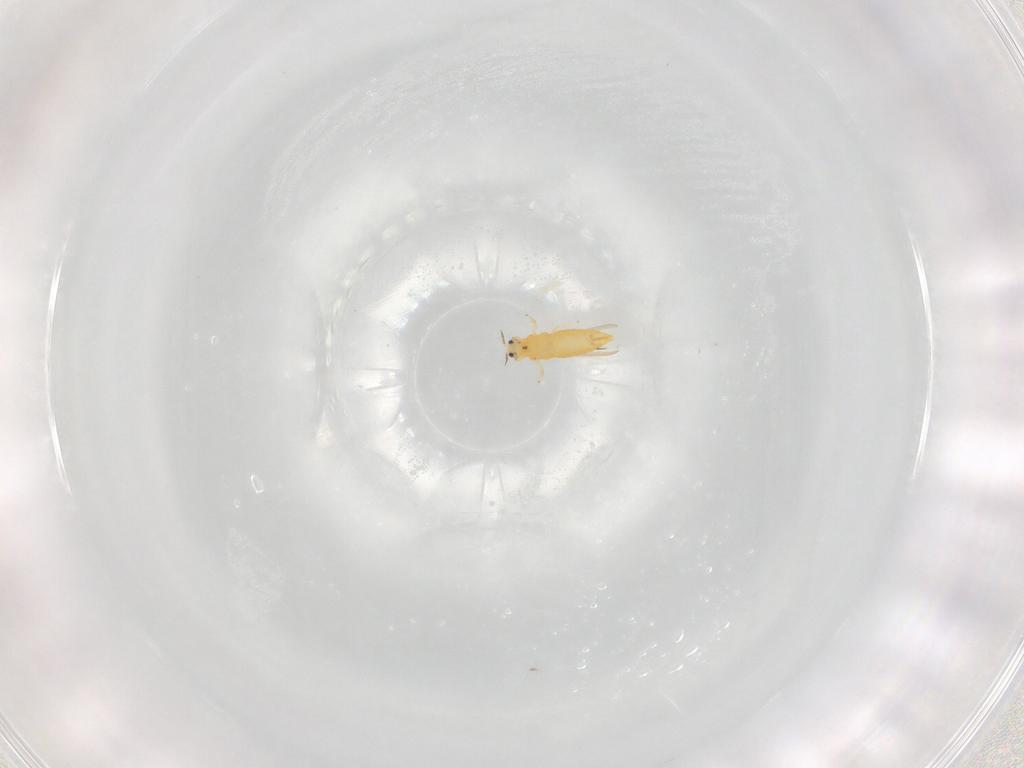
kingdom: Animalia
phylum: Arthropoda
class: Insecta
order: Thysanoptera
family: Thripidae
